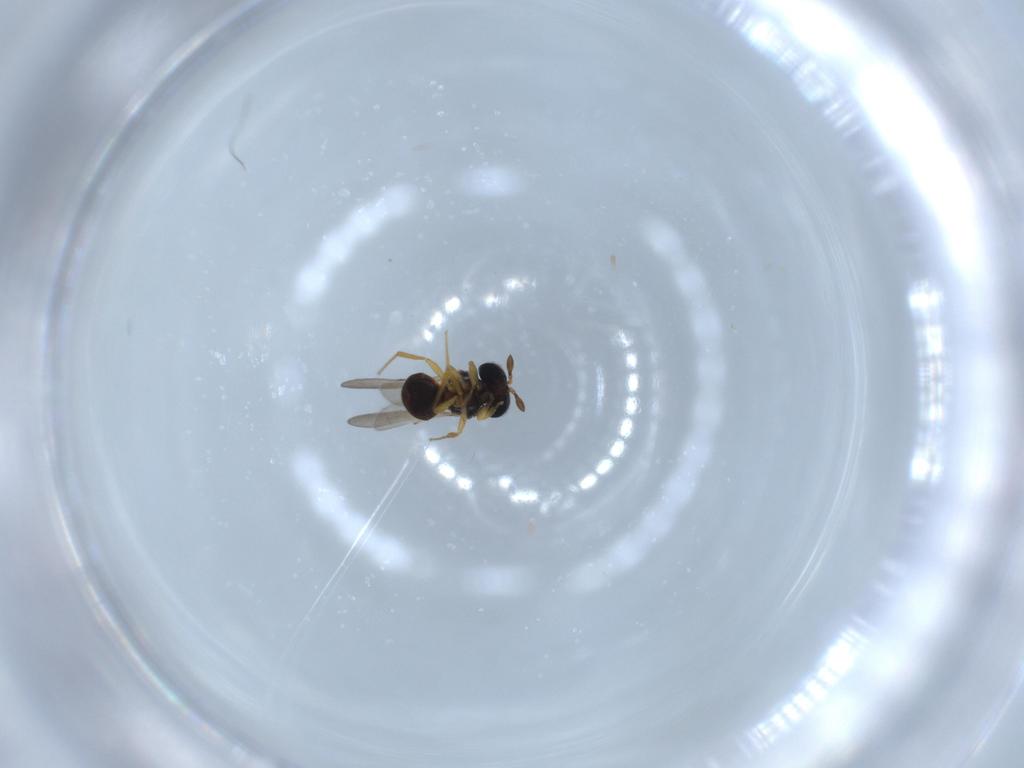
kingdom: Animalia
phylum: Arthropoda
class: Insecta
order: Hymenoptera
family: Scelionidae
